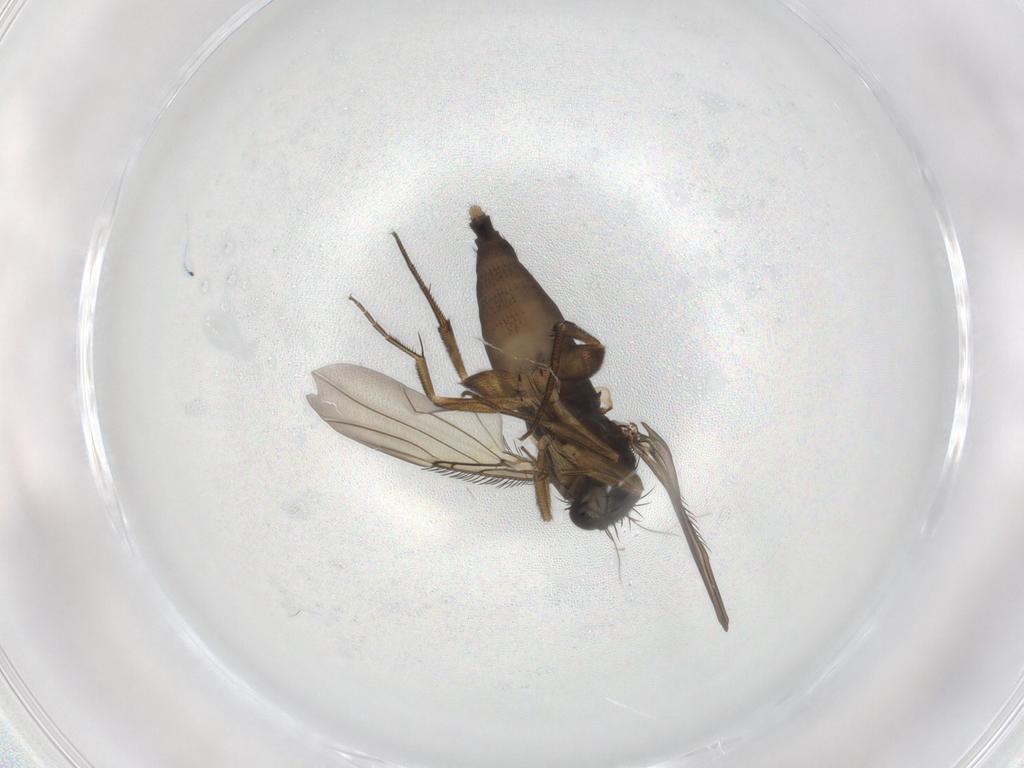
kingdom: Animalia
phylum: Arthropoda
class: Insecta
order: Diptera
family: Phoridae
